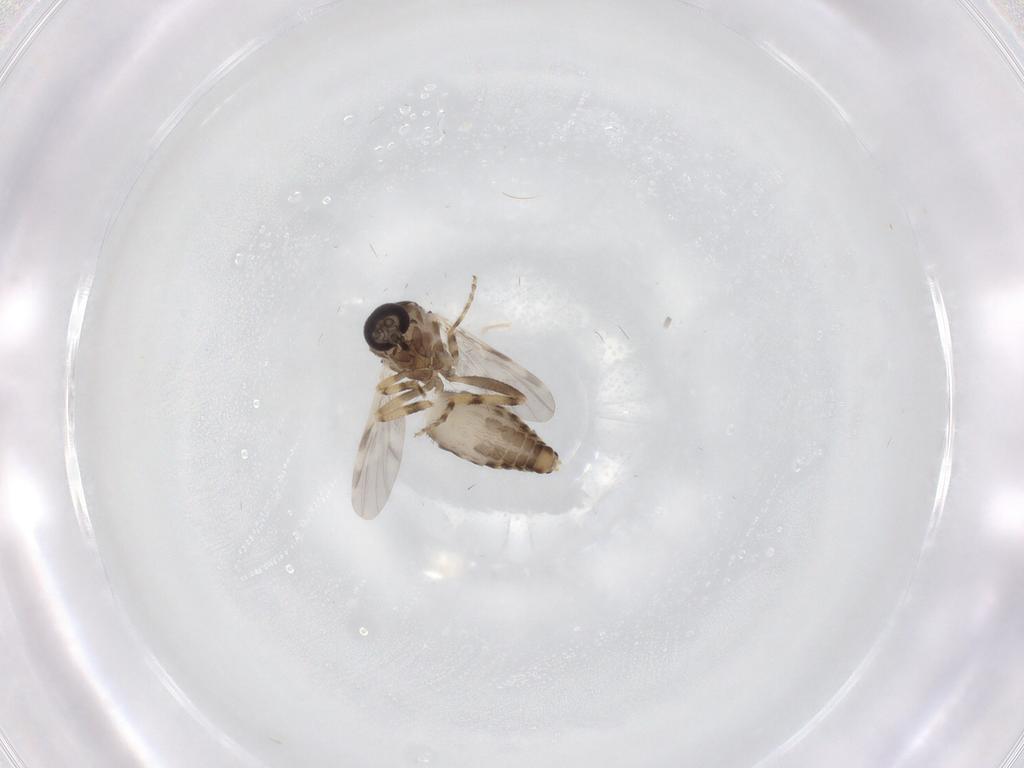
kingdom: Animalia
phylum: Arthropoda
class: Insecta
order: Diptera
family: Ceratopogonidae
